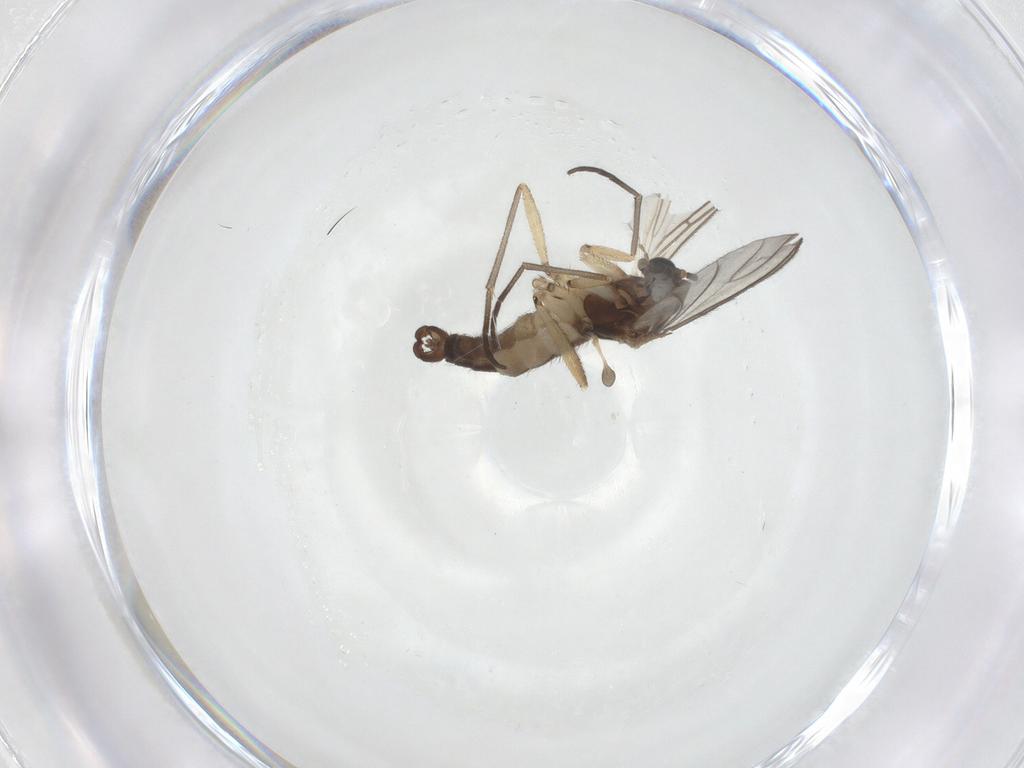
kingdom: Animalia
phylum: Arthropoda
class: Insecta
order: Diptera
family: Sciaridae
